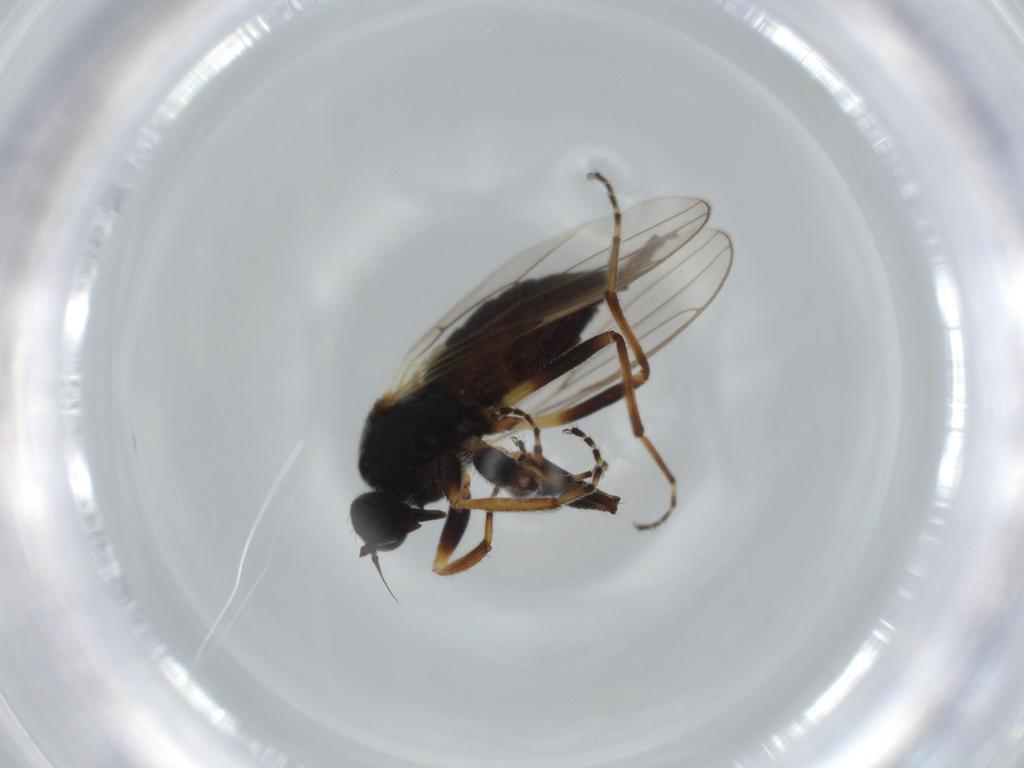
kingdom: Animalia
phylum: Arthropoda
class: Insecta
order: Diptera
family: Hybotidae
